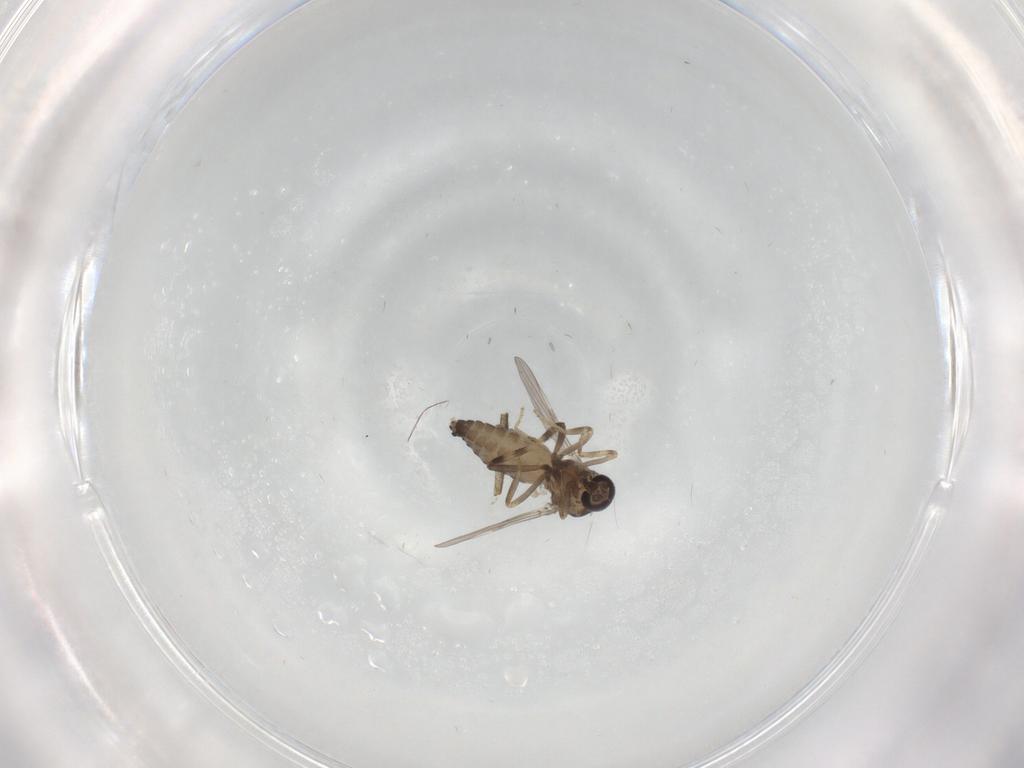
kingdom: Animalia
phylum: Arthropoda
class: Insecta
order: Diptera
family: Ceratopogonidae
